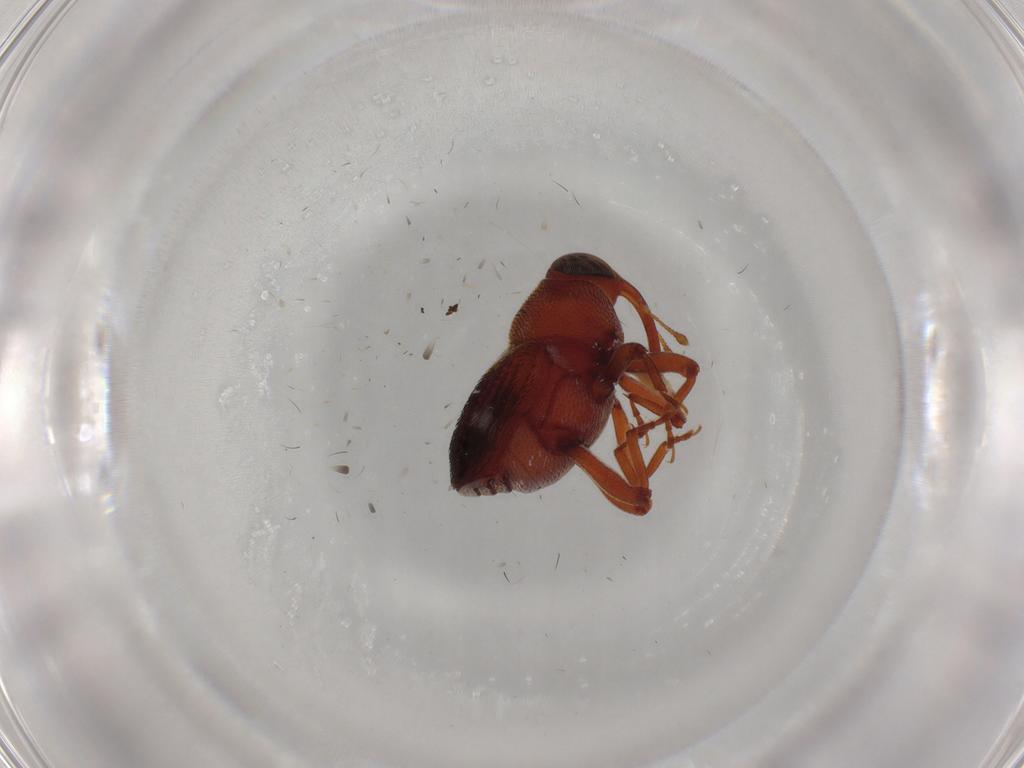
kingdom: Animalia
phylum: Arthropoda
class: Insecta
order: Coleoptera
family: Curculionidae
